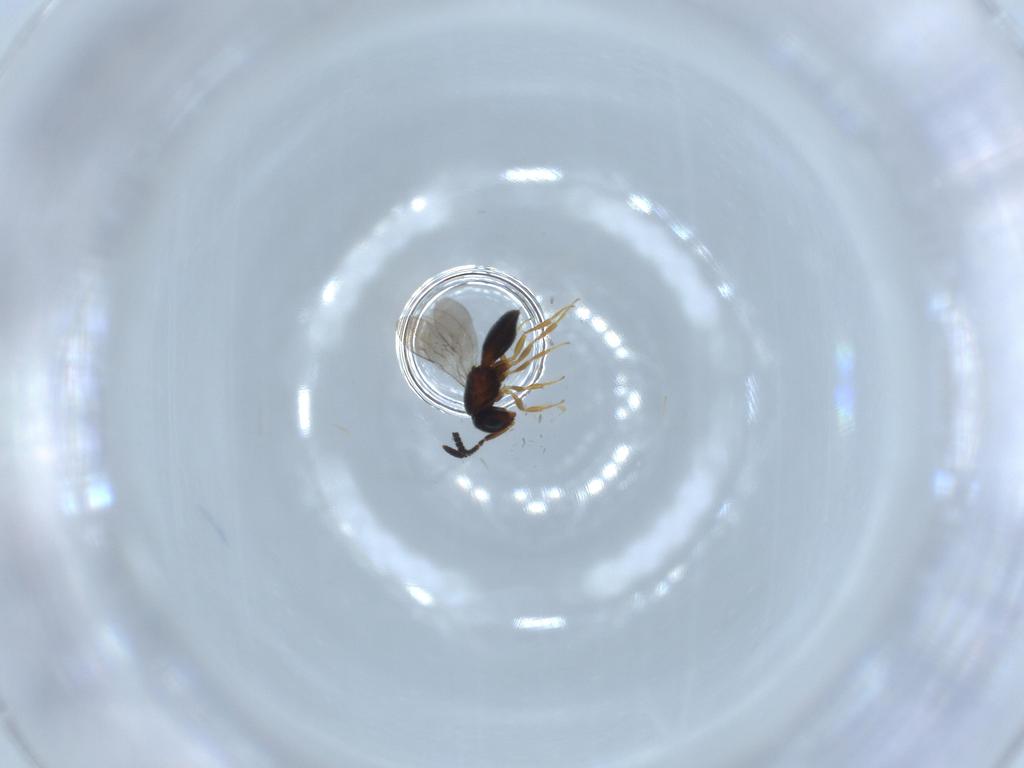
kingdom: Animalia
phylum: Arthropoda
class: Insecta
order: Hymenoptera
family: Scelionidae
